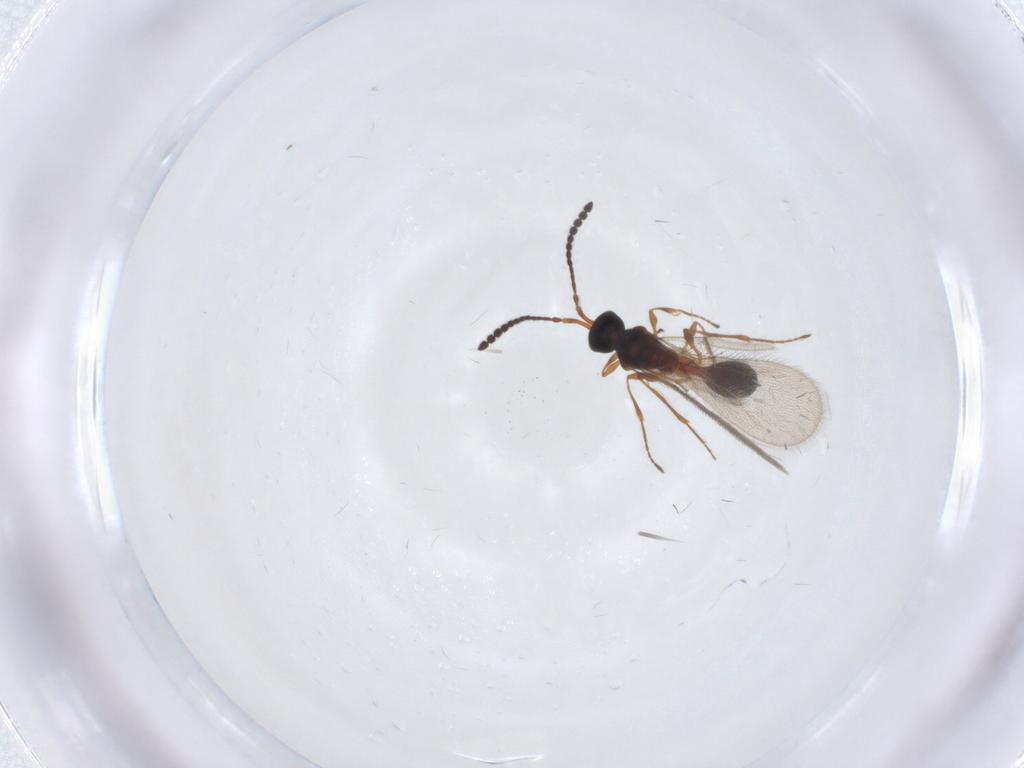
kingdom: Animalia
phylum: Arthropoda
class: Insecta
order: Hymenoptera
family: Diapriidae
